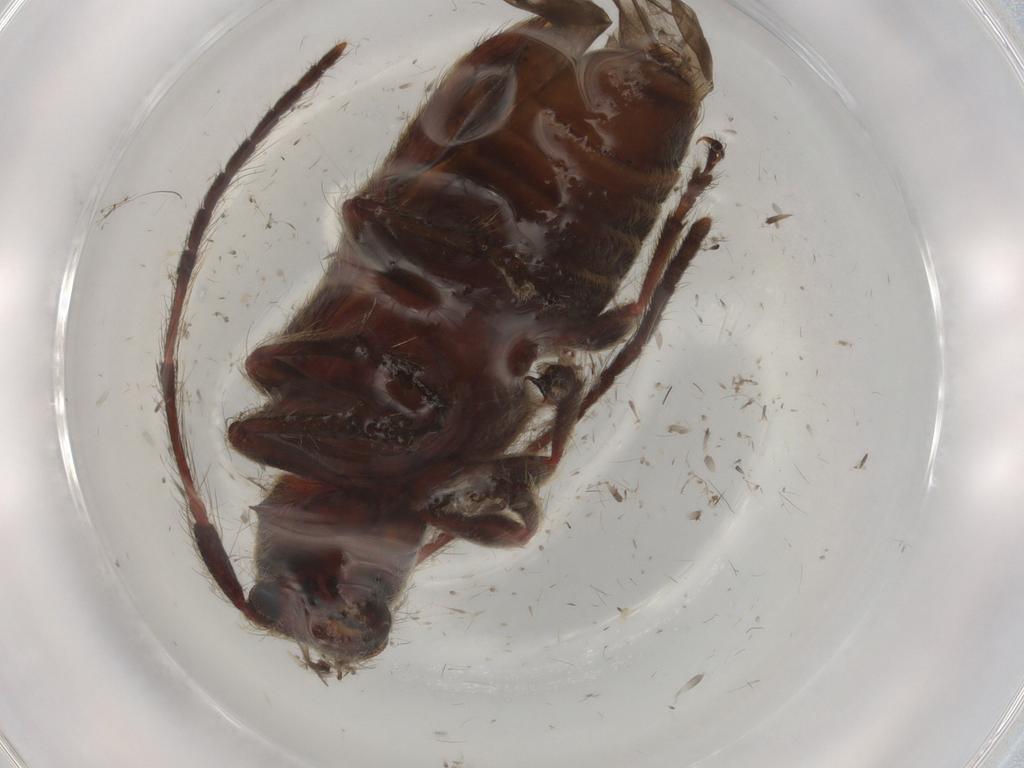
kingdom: Animalia
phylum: Arthropoda
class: Insecta
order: Coleoptera
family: Cerambycidae
